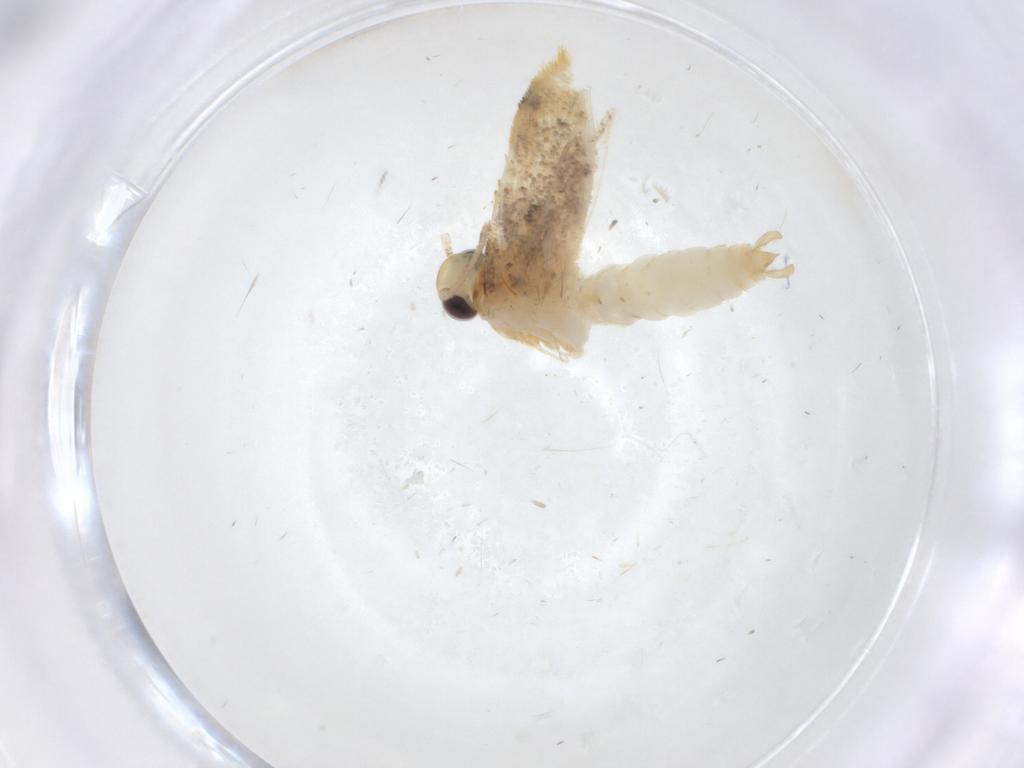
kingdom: Animalia
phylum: Arthropoda
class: Insecta
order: Lepidoptera
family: Erebidae
